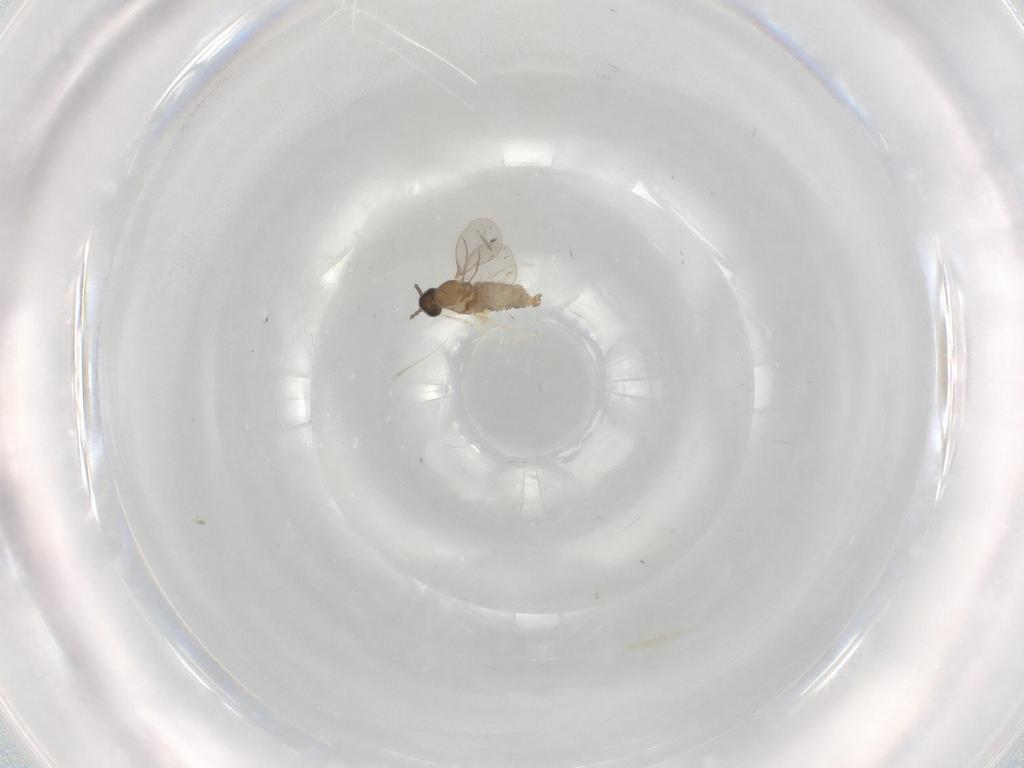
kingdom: Animalia
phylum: Arthropoda
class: Insecta
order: Diptera
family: Cecidomyiidae
